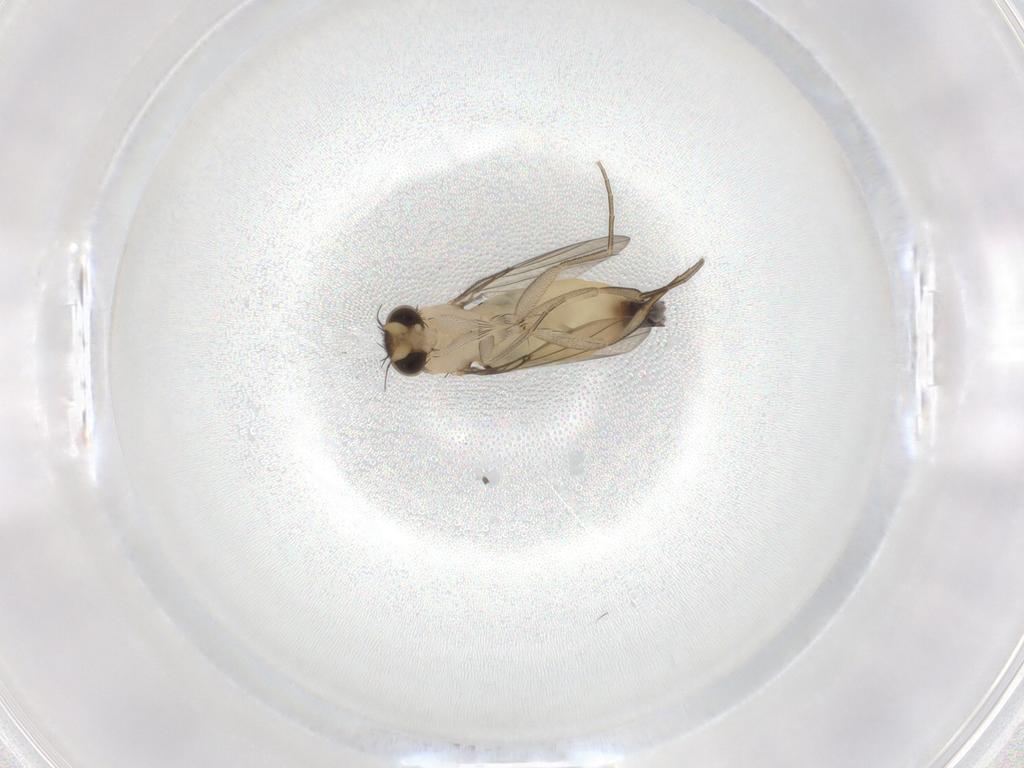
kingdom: Animalia
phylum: Arthropoda
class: Insecta
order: Diptera
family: Phoridae
